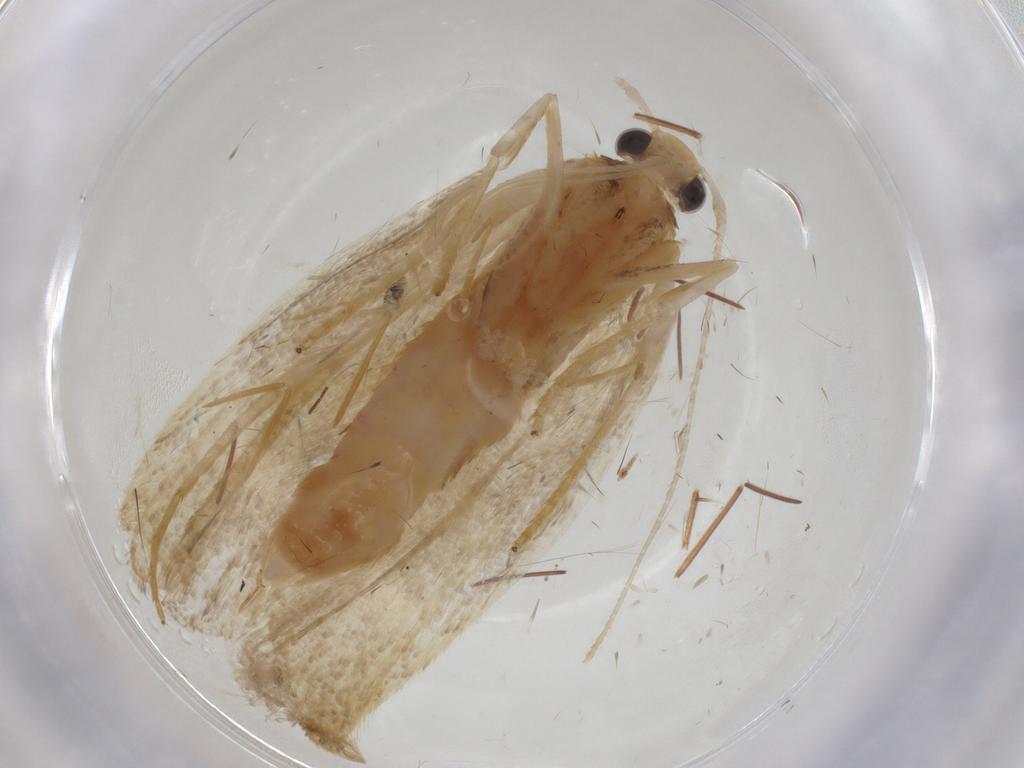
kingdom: Animalia
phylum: Arthropoda
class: Insecta
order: Lepidoptera
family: Lecithoceridae
